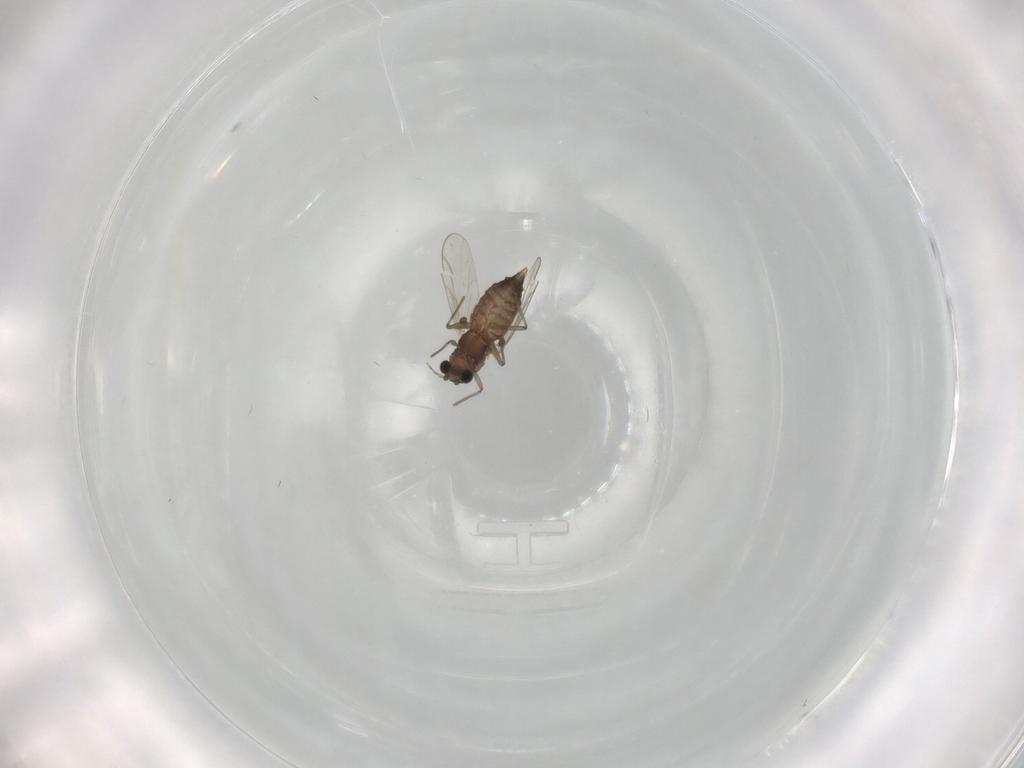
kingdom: Animalia
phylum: Arthropoda
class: Insecta
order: Diptera
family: Chironomidae
